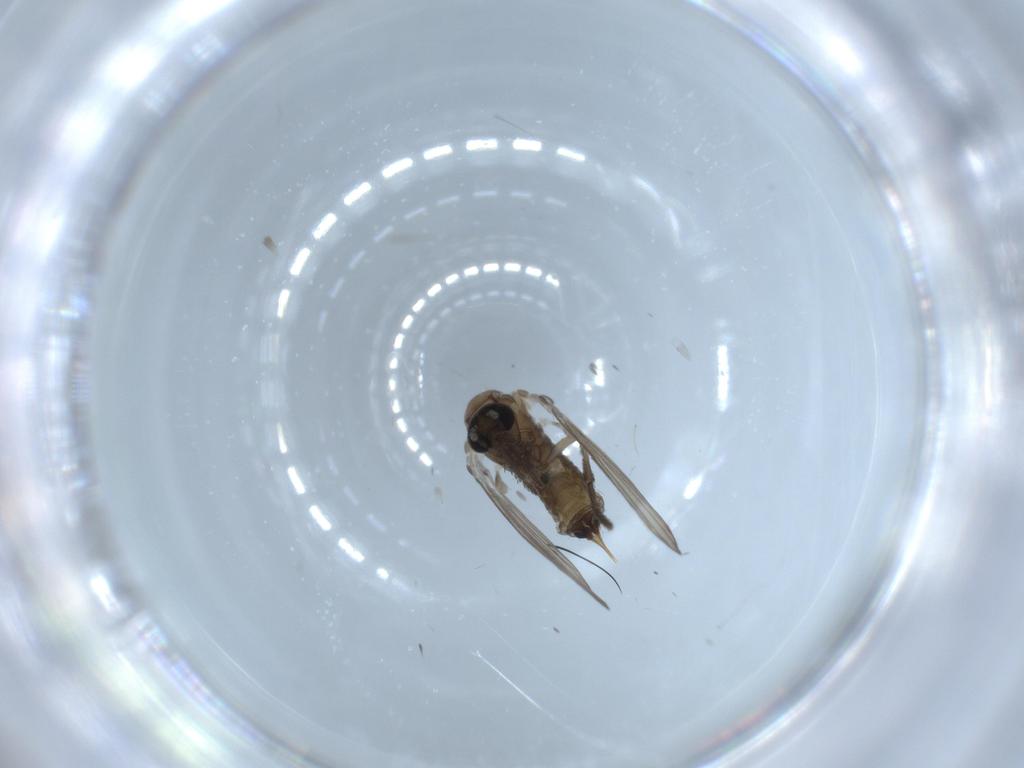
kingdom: Animalia
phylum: Arthropoda
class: Insecta
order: Diptera
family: Psychodidae
